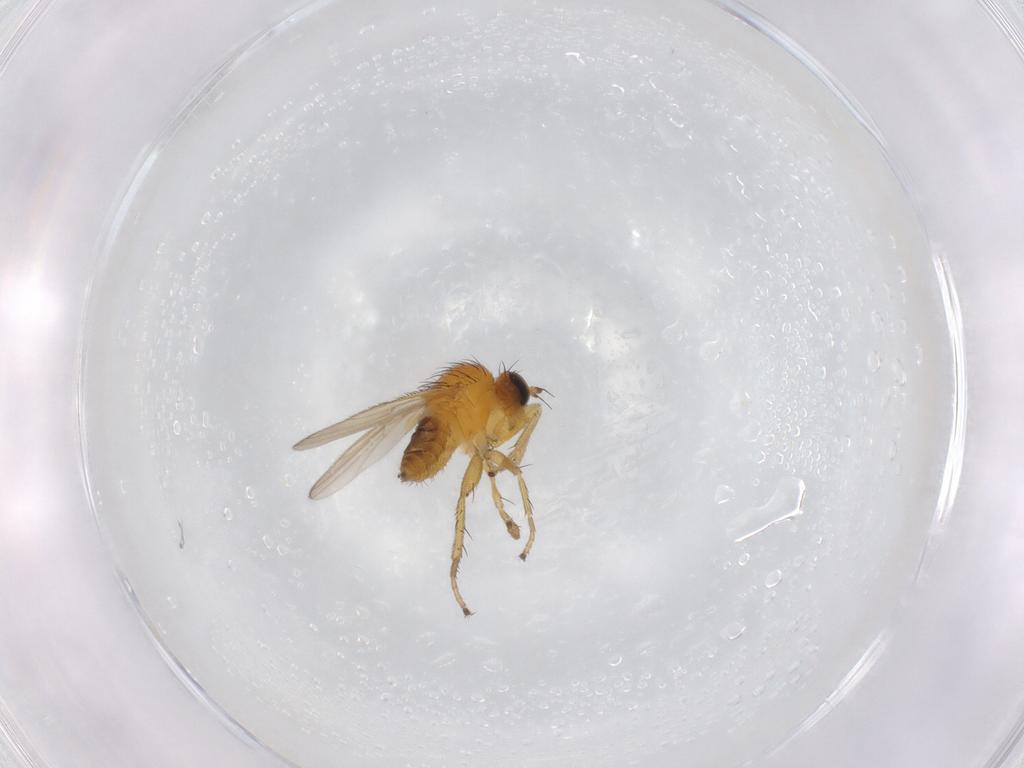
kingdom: Animalia
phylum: Arthropoda
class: Insecta
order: Diptera
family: Hybotidae
